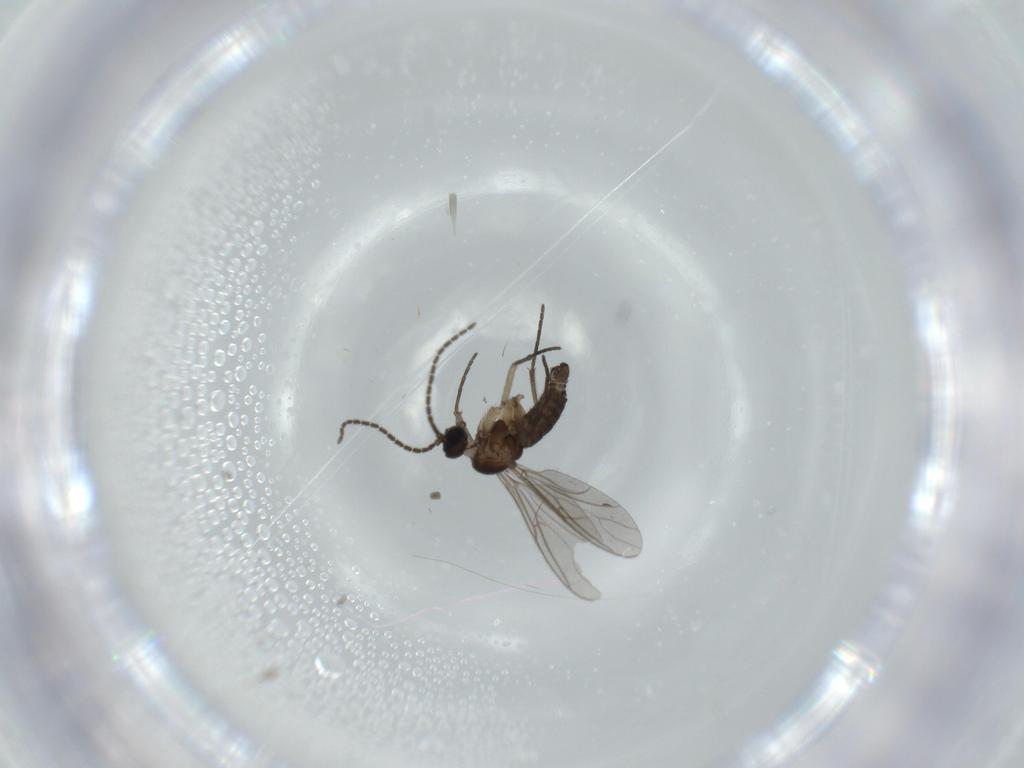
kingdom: Animalia
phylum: Arthropoda
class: Insecta
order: Diptera
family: Sciaridae
